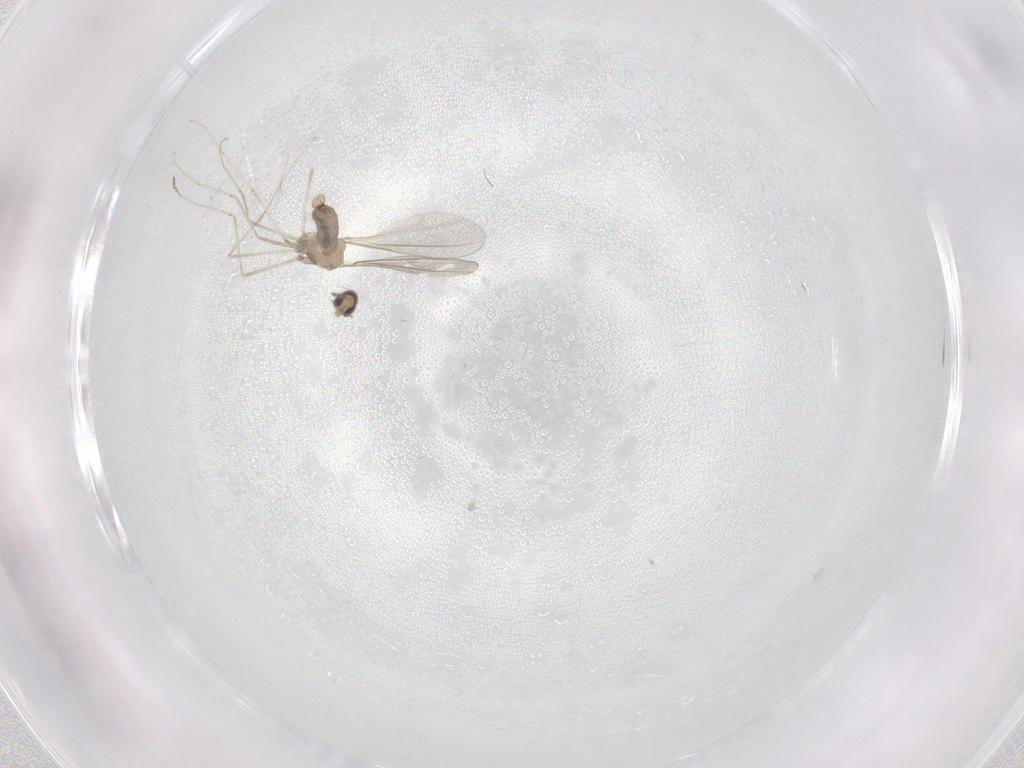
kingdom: Animalia
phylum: Arthropoda
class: Insecta
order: Diptera
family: Cecidomyiidae
